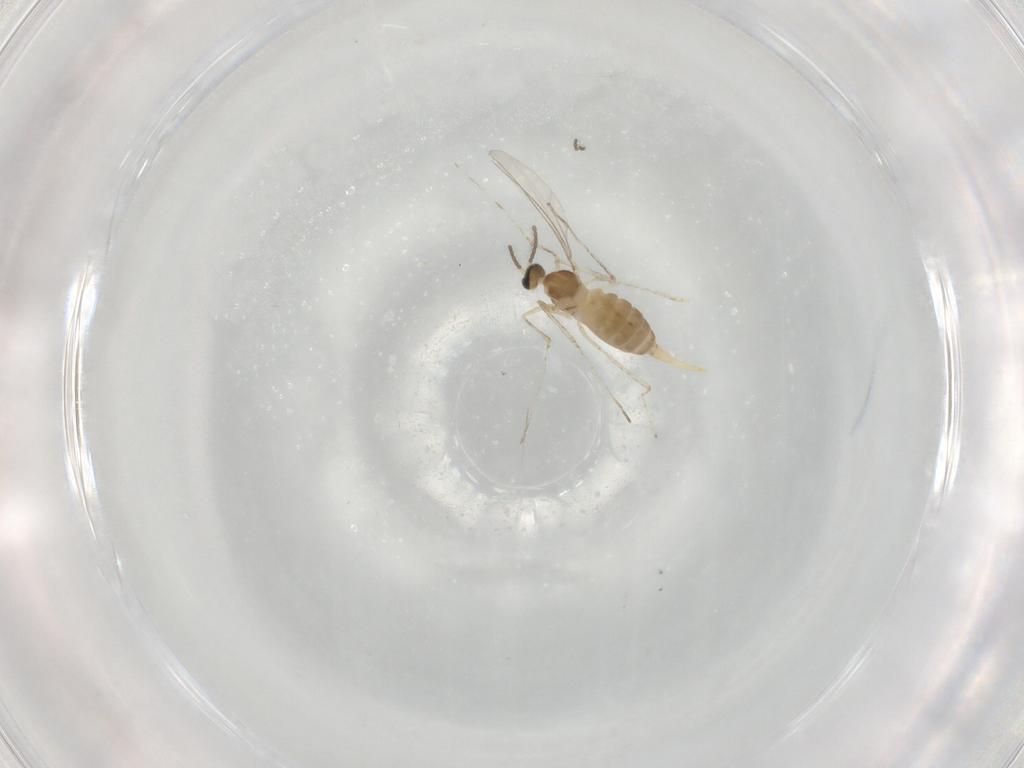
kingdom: Animalia
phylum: Arthropoda
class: Insecta
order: Diptera
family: Cecidomyiidae
